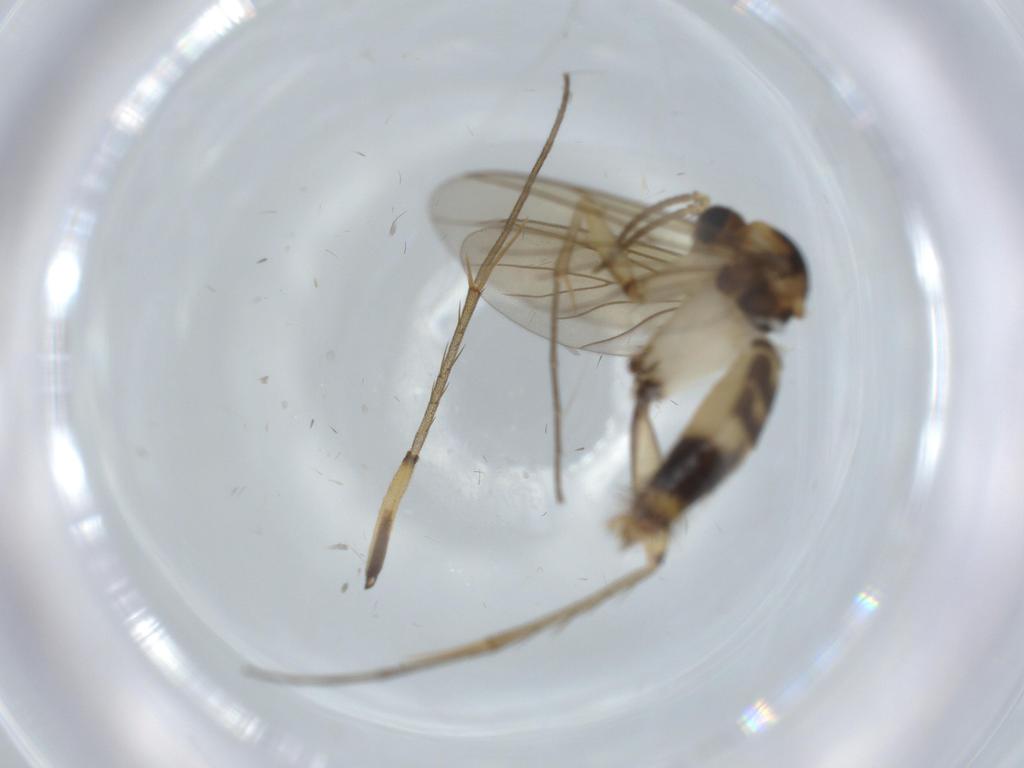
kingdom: Animalia
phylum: Arthropoda
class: Insecta
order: Diptera
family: Mycetophilidae
